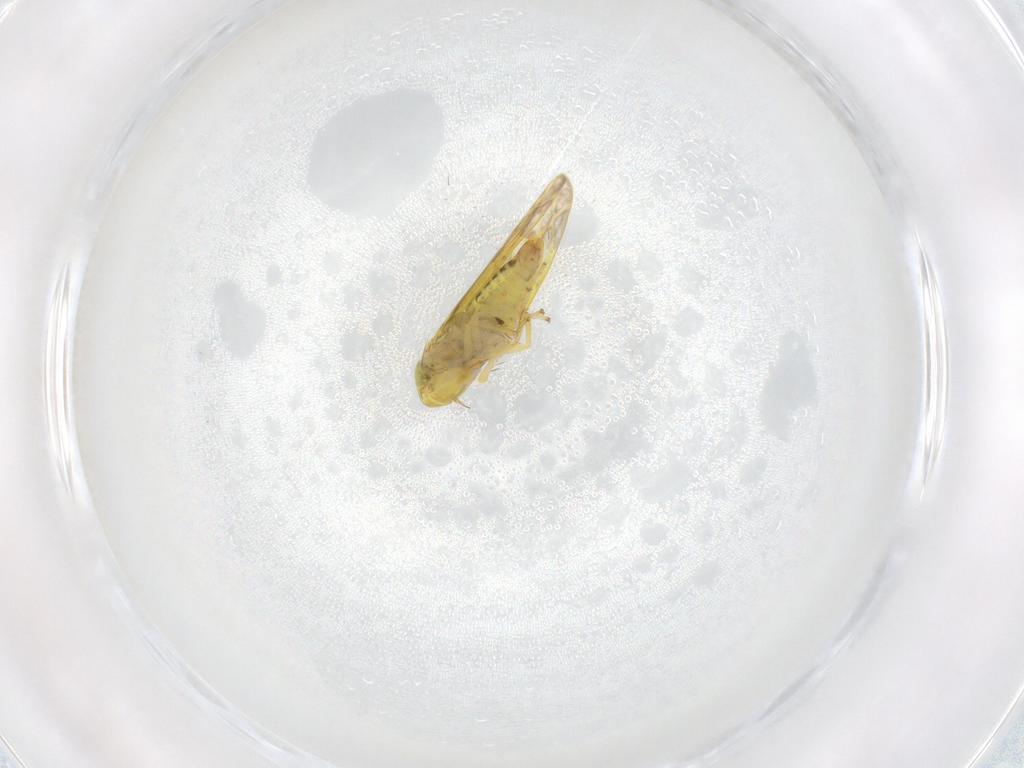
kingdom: Animalia
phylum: Arthropoda
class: Insecta
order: Hemiptera
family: Cicadellidae
